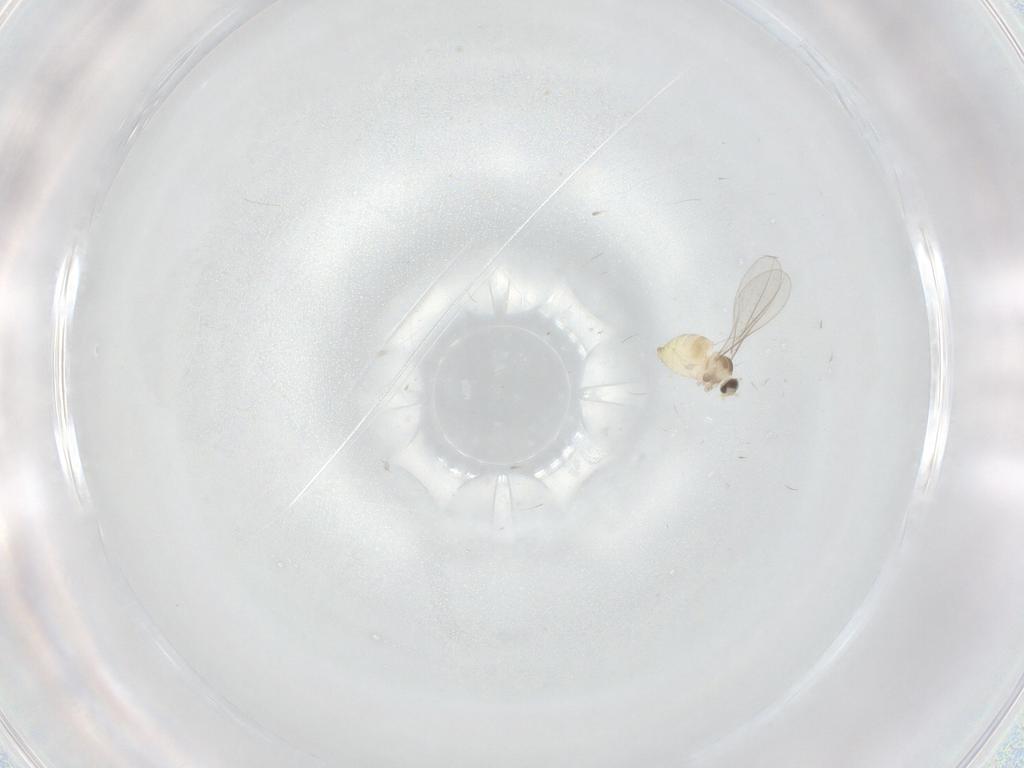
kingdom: Animalia
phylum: Arthropoda
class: Insecta
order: Diptera
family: Cecidomyiidae
